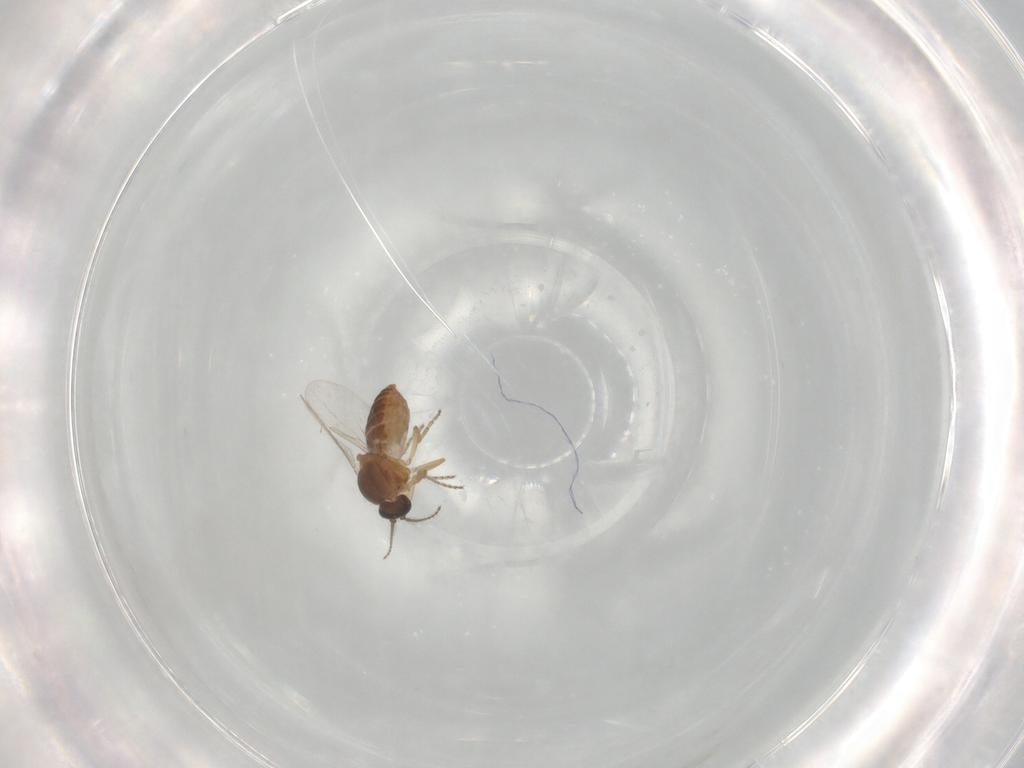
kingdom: Animalia
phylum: Arthropoda
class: Insecta
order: Diptera
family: Ceratopogonidae
